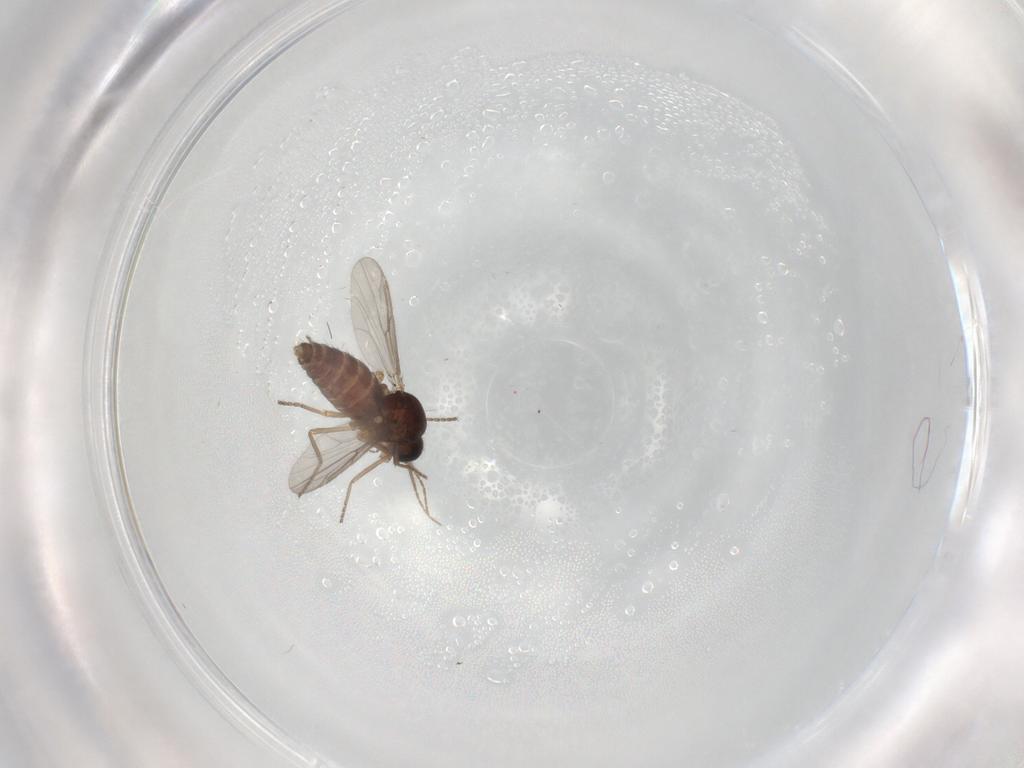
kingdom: Animalia
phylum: Arthropoda
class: Insecta
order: Diptera
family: Ceratopogonidae
